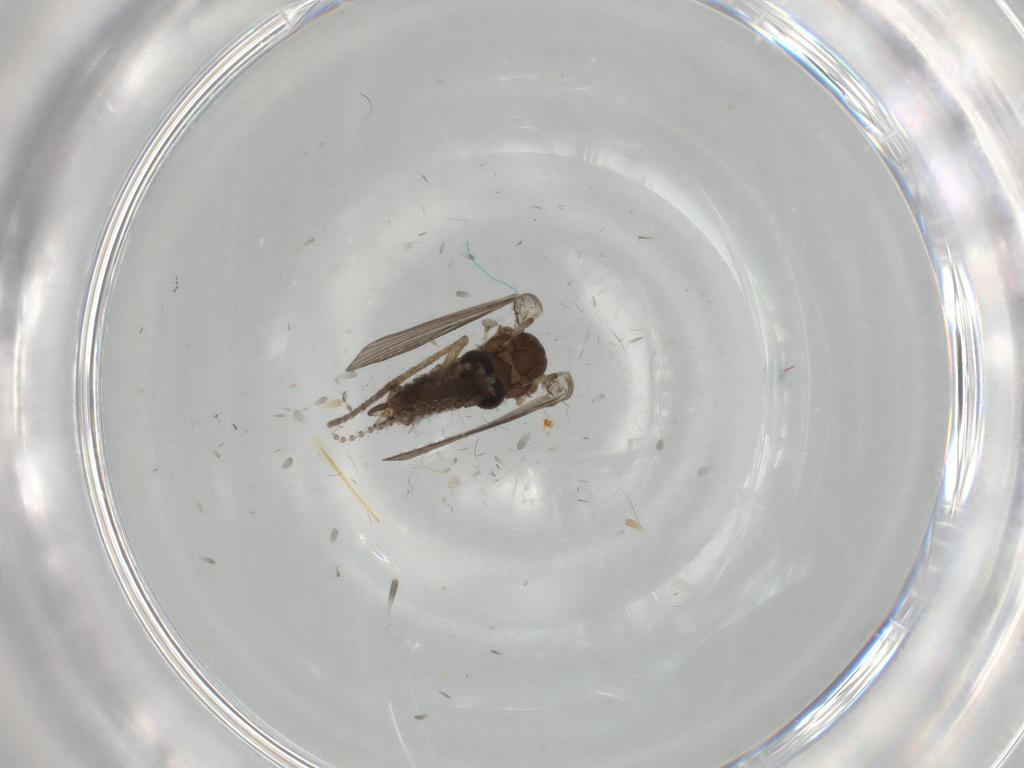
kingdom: Animalia
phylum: Arthropoda
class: Insecta
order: Diptera
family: Psychodidae
